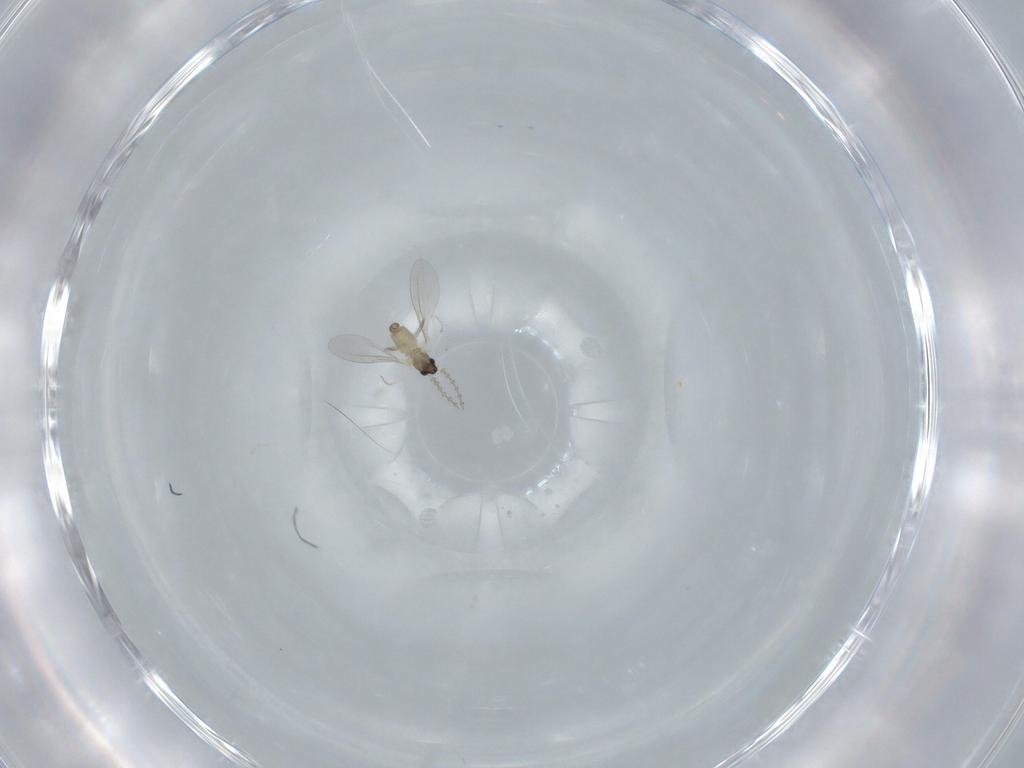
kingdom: Animalia
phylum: Arthropoda
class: Insecta
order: Diptera
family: Cecidomyiidae
